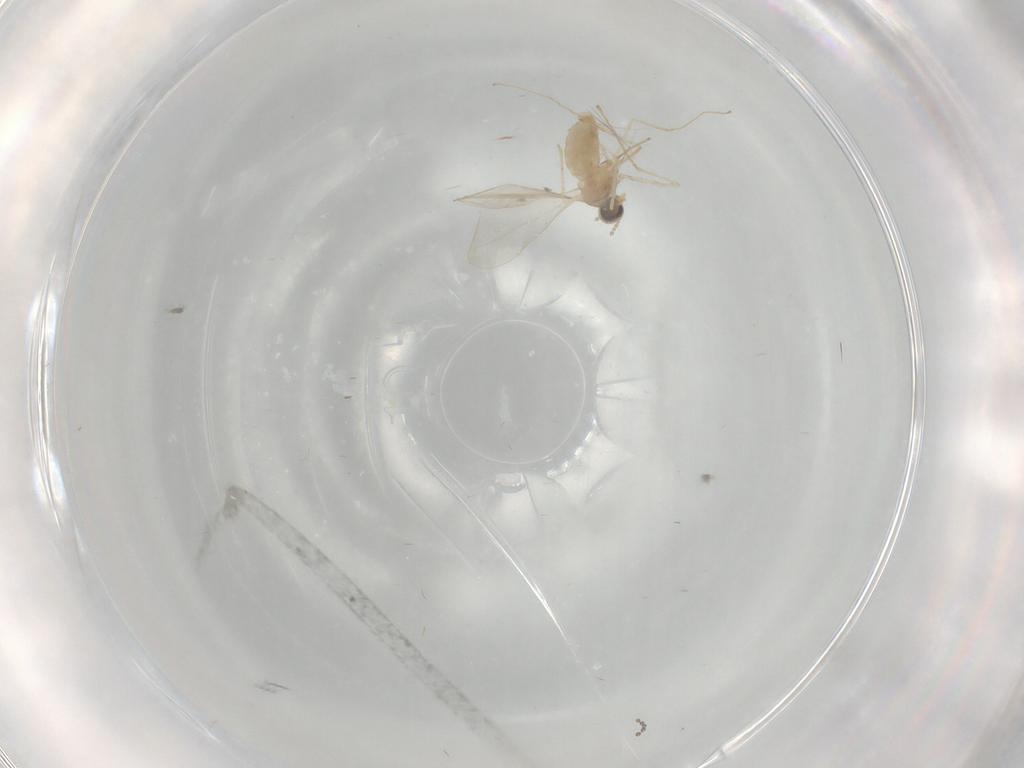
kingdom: Animalia
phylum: Arthropoda
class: Insecta
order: Diptera
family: Cecidomyiidae
